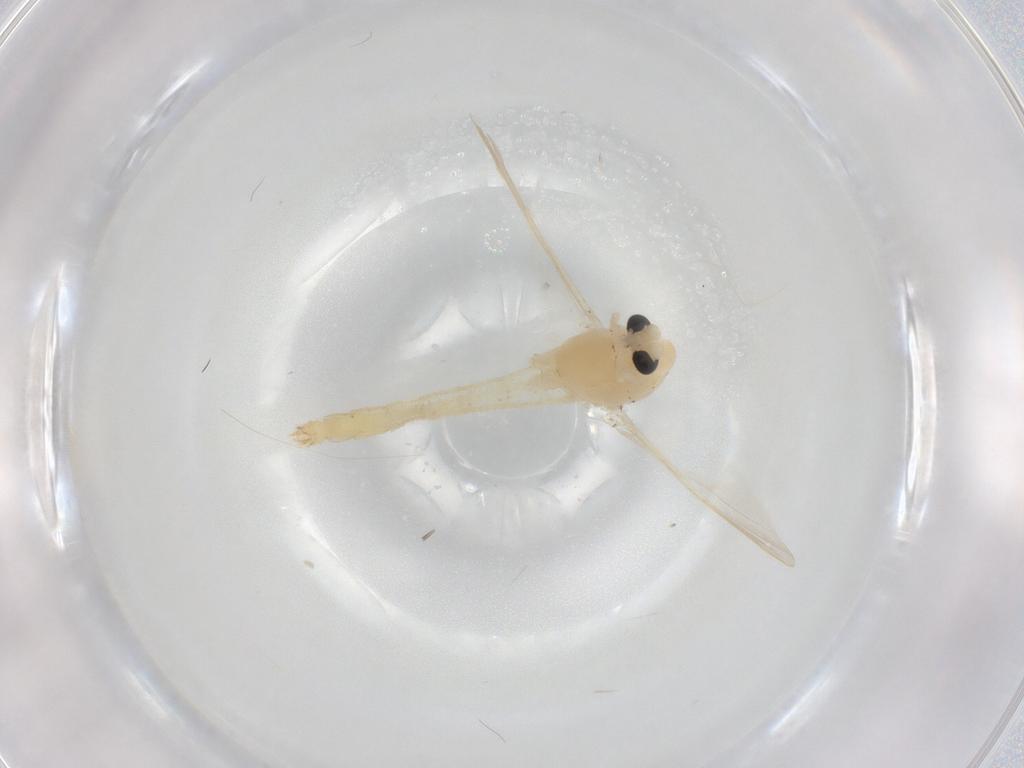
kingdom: Animalia
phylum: Arthropoda
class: Insecta
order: Diptera
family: Chironomidae
